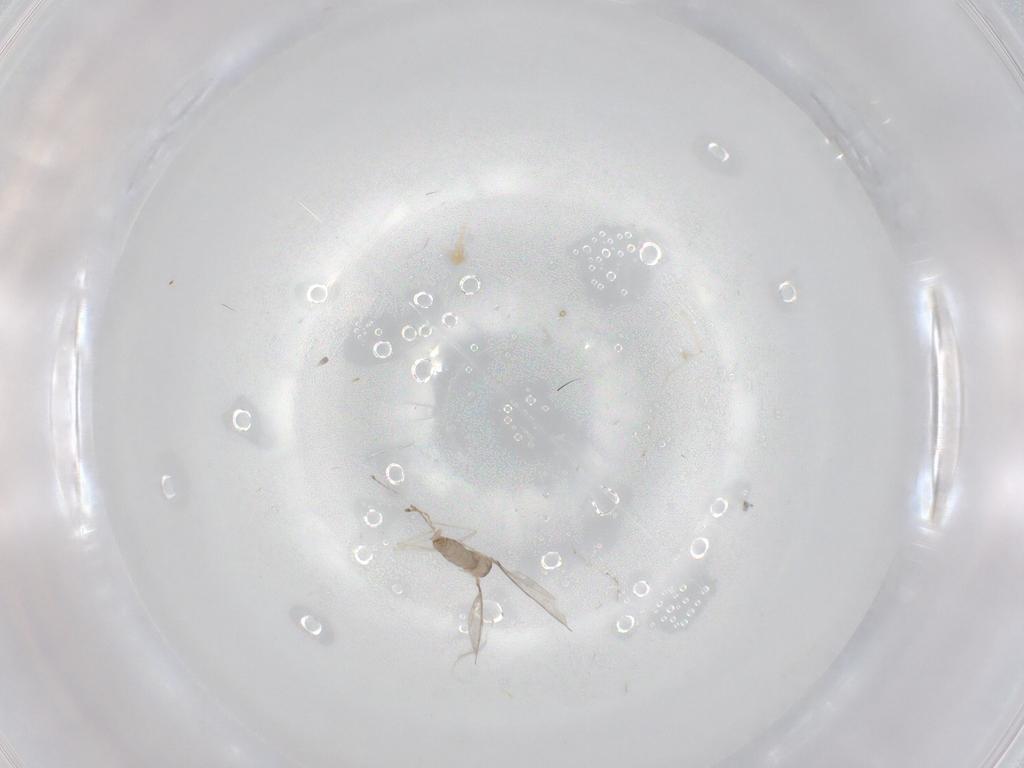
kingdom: Animalia
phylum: Arthropoda
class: Insecta
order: Diptera
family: Cecidomyiidae
